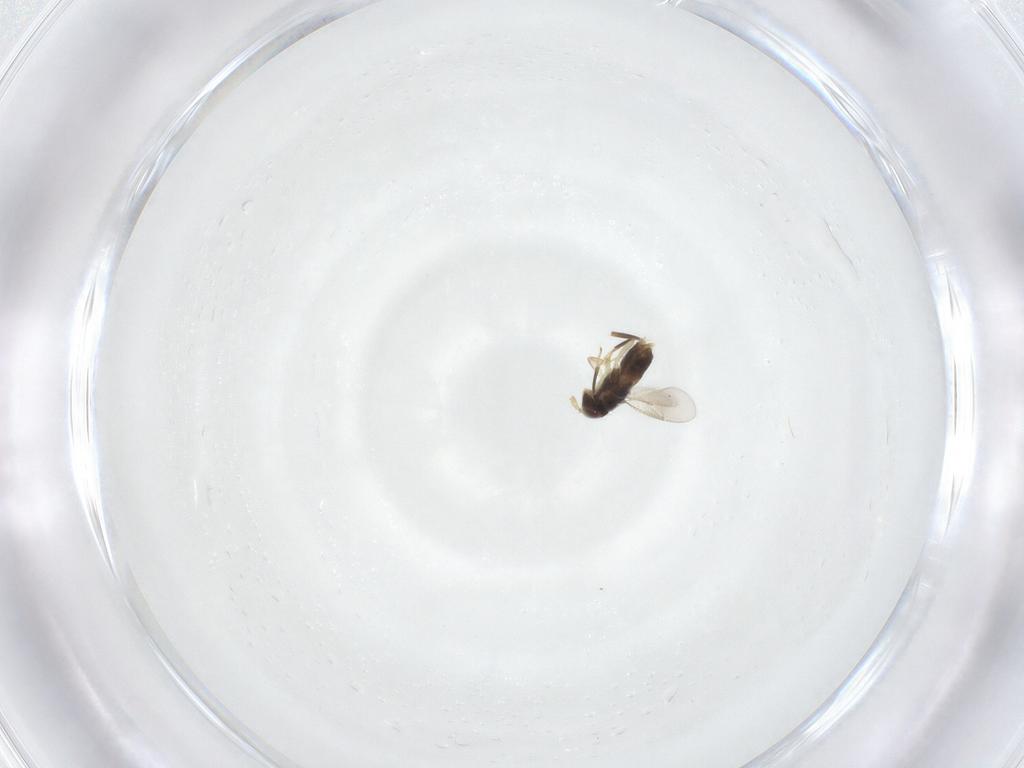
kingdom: Animalia
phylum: Arthropoda
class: Insecta
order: Hymenoptera
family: Aphelinidae
